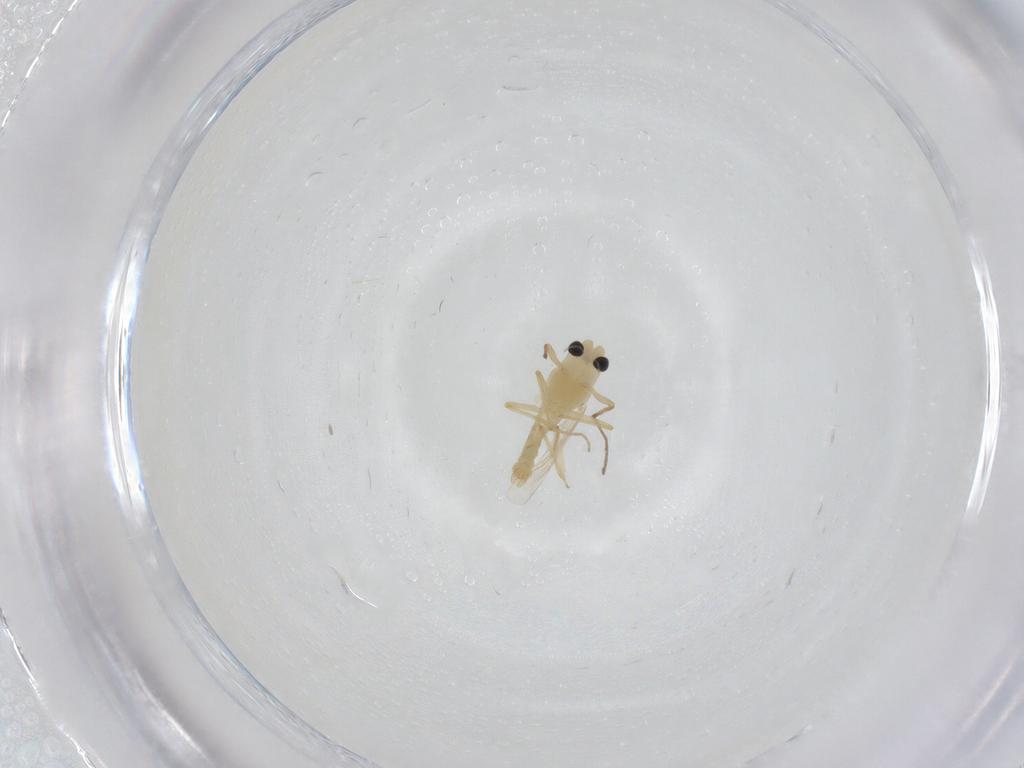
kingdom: Animalia
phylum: Arthropoda
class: Insecta
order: Diptera
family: Chironomidae
